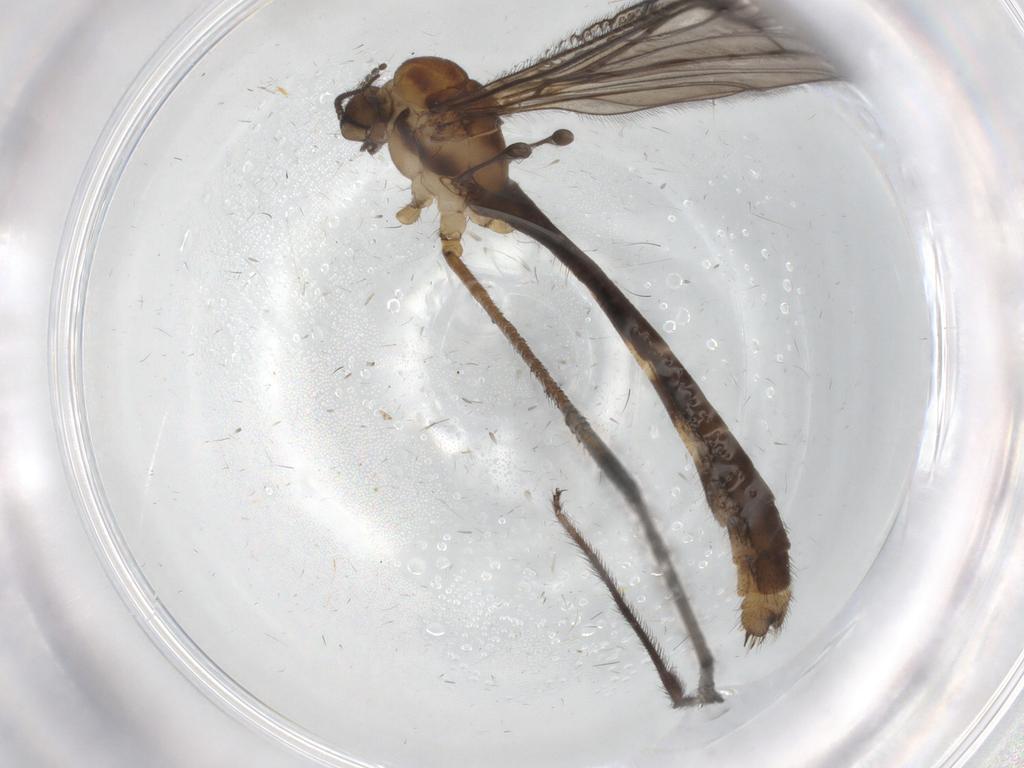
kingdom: Animalia
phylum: Arthropoda
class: Insecta
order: Diptera
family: Limoniidae
